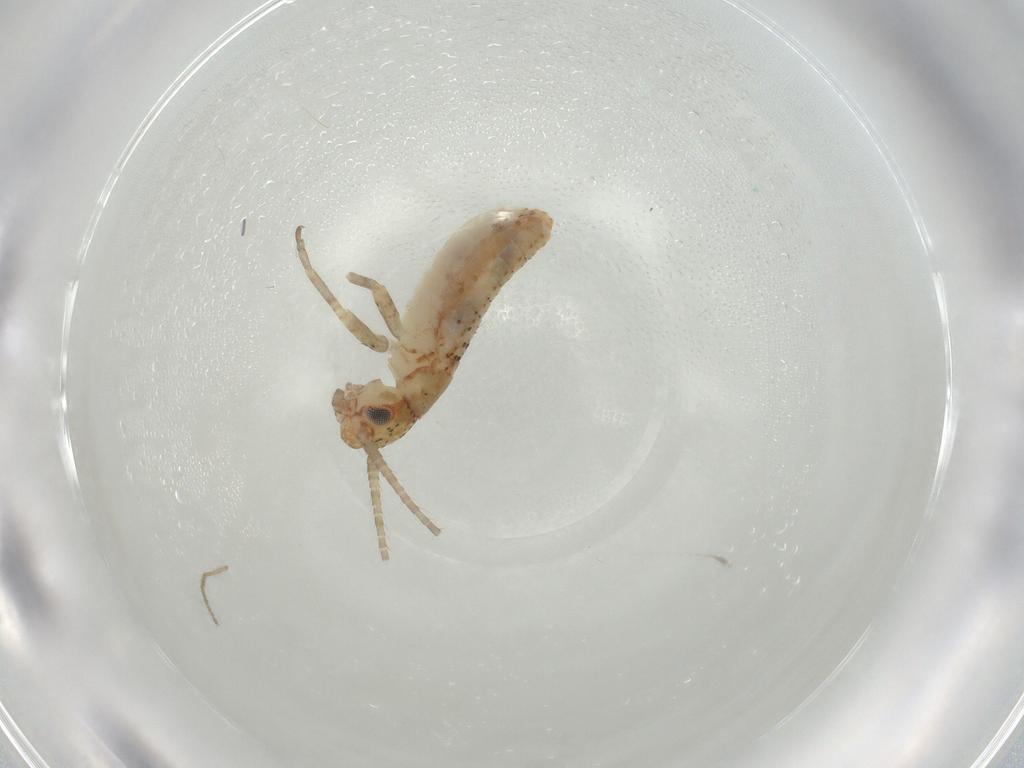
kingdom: Animalia
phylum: Arthropoda
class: Insecta
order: Orthoptera
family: Mogoplistidae
